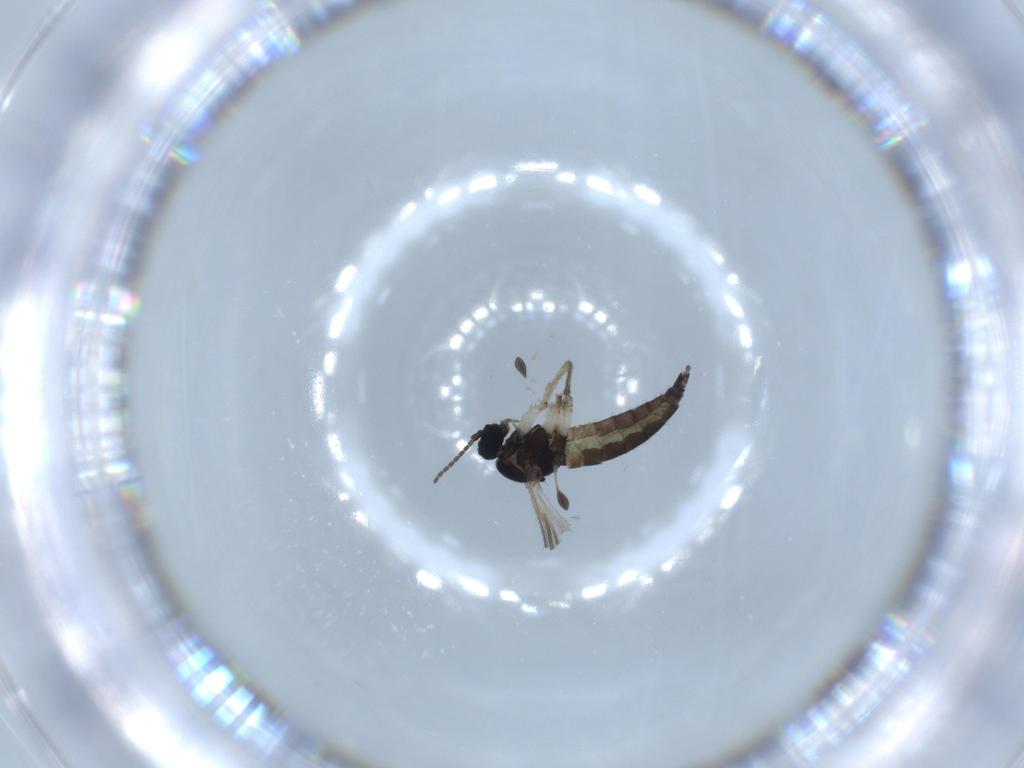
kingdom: Animalia
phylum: Arthropoda
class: Insecta
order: Diptera
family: Sciaridae
